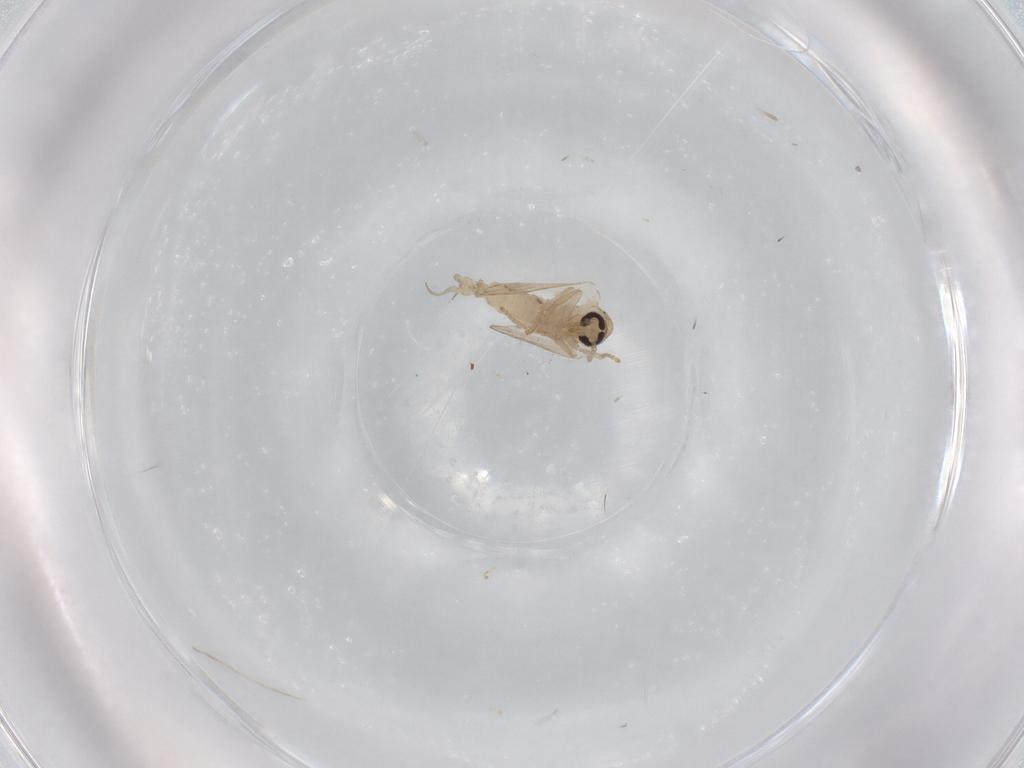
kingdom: Animalia
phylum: Arthropoda
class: Insecta
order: Diptera
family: Psychodidae
